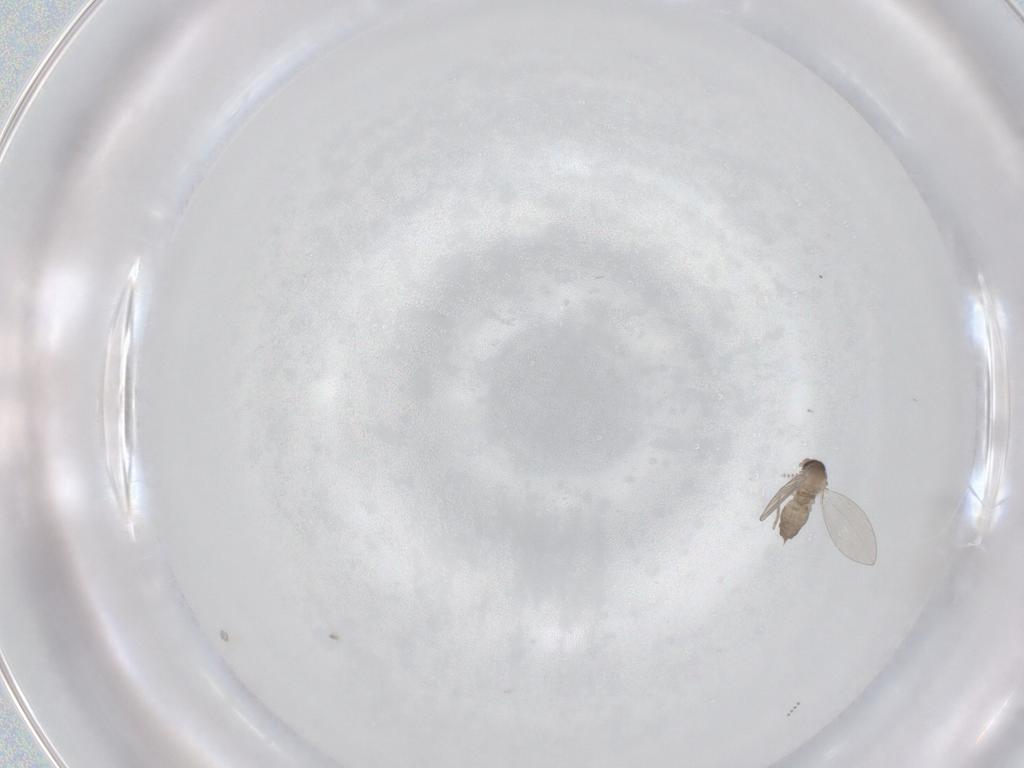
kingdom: Animalia
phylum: Arthropoda
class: Insecta
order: Diptera
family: Psychodidae
